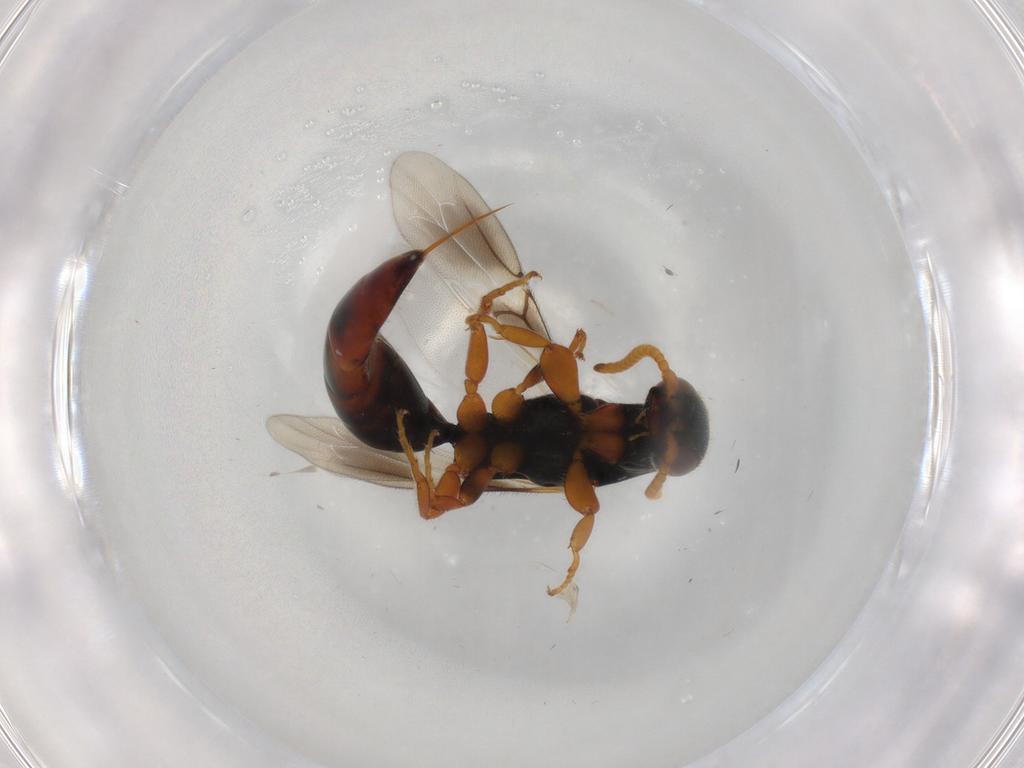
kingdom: Animalia
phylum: Arthropoda
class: Insecta
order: Hymenoptera
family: Bethylidae
